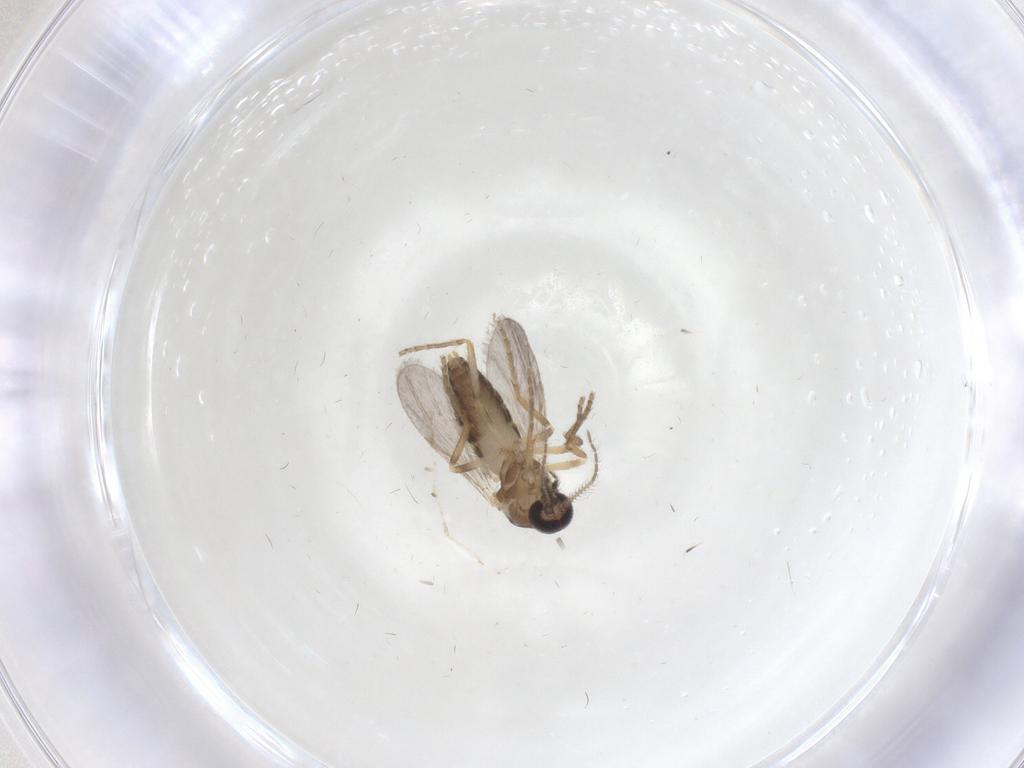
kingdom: Animalia
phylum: Arthropoda
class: Insecta
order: Diptera
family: Ceratopogonidae
